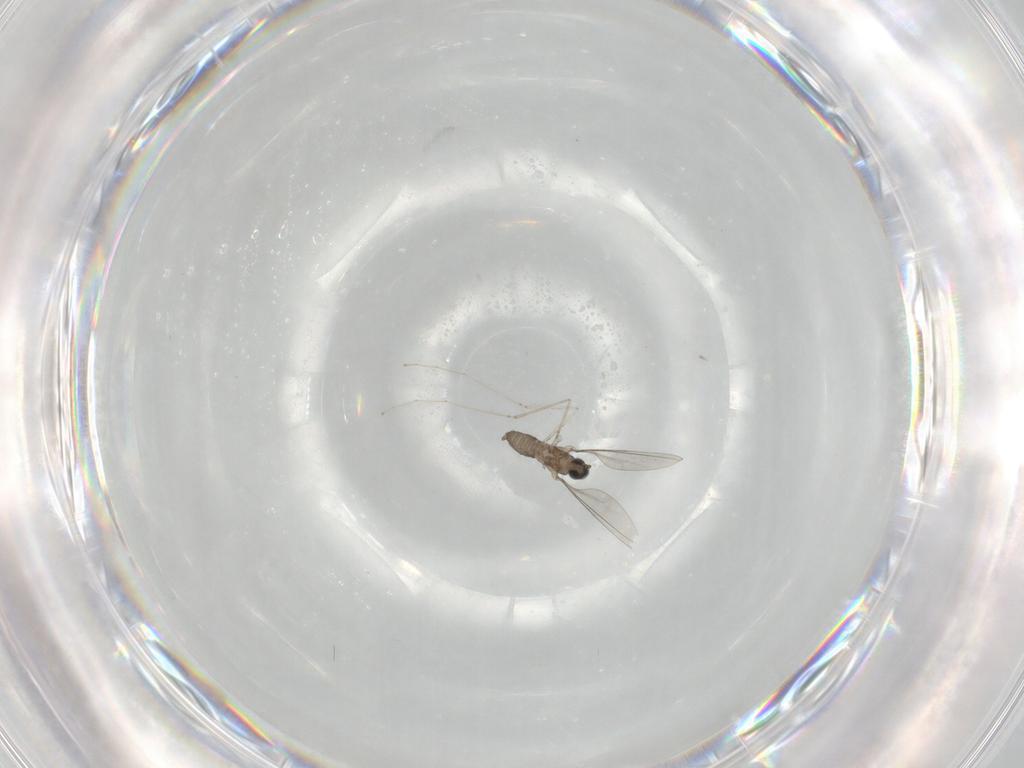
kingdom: Animalia
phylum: Arthropoda
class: Insecta
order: Diptera
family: Cecidomyiidae
